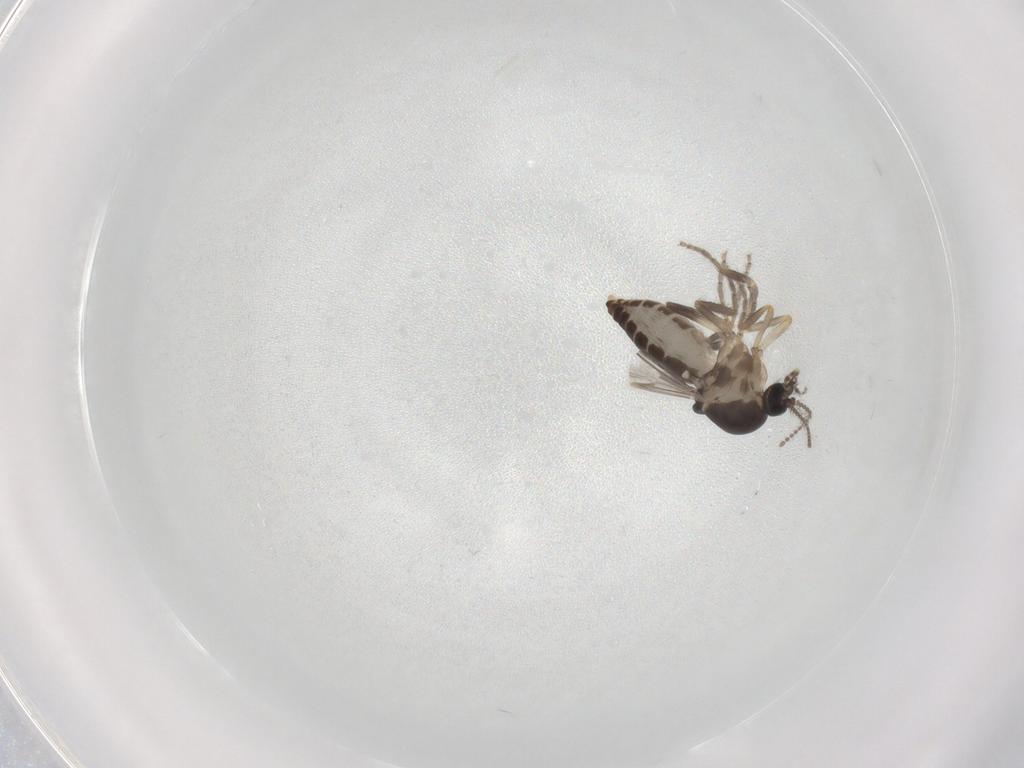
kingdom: Animalia
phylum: Arthropoda
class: Insecta
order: Diptera
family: Ceratopogonidae
